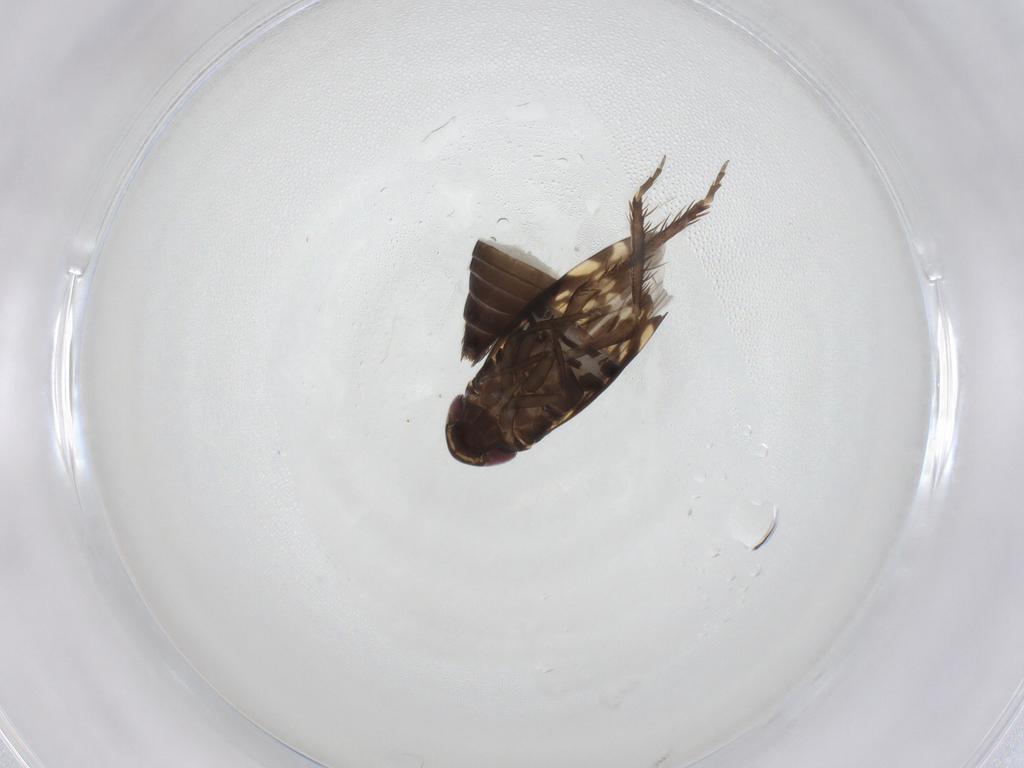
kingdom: Animalia
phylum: Arthropoda
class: Insecta
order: Hemiptera
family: Cicadellidae
